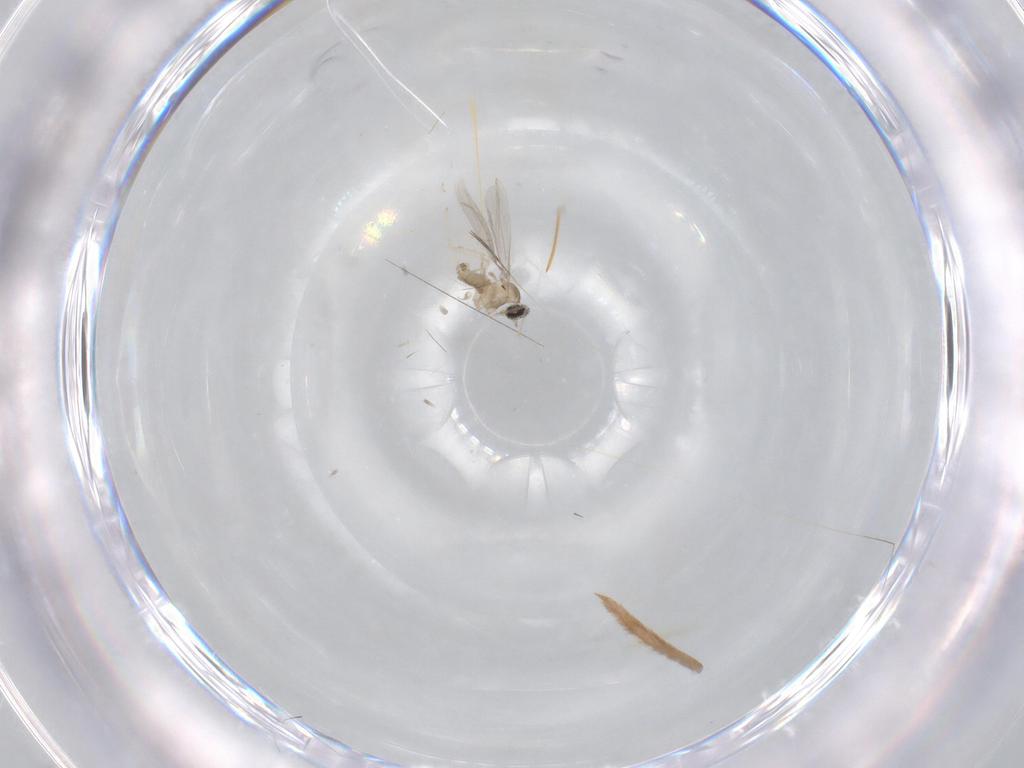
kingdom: Animalia
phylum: Arthropoda
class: Insecta
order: Diptera
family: Cecidomyiidae
